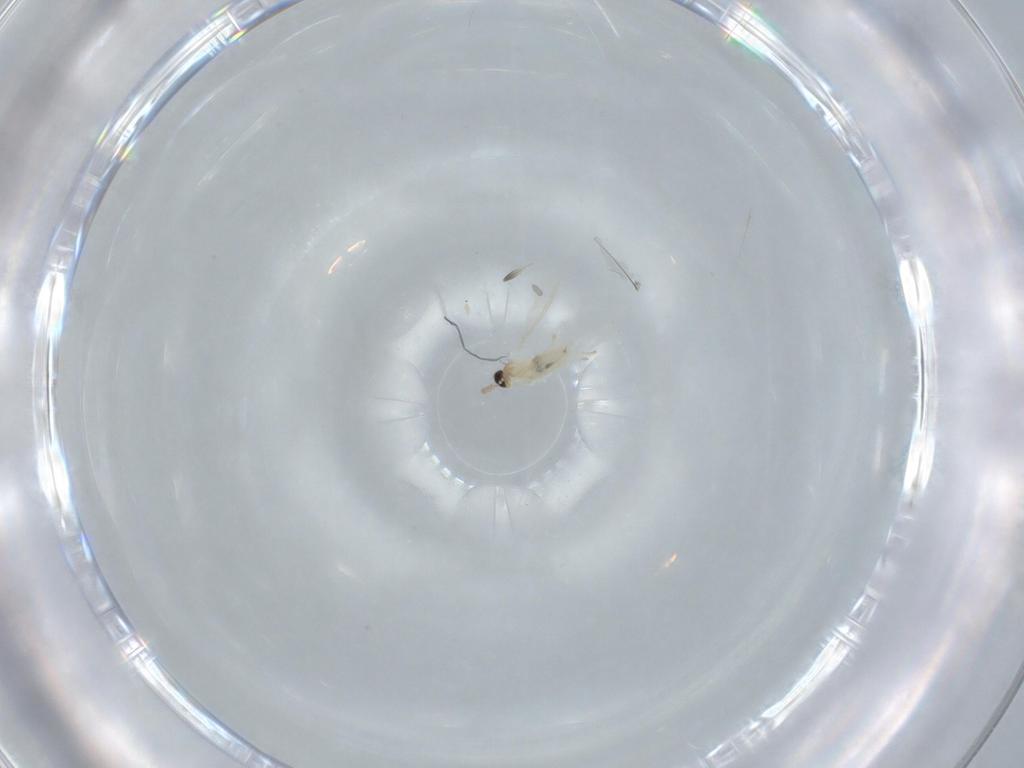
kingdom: Animalia
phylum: Arthropoda
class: Insecta
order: Diptera
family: Cecidomyiidae
